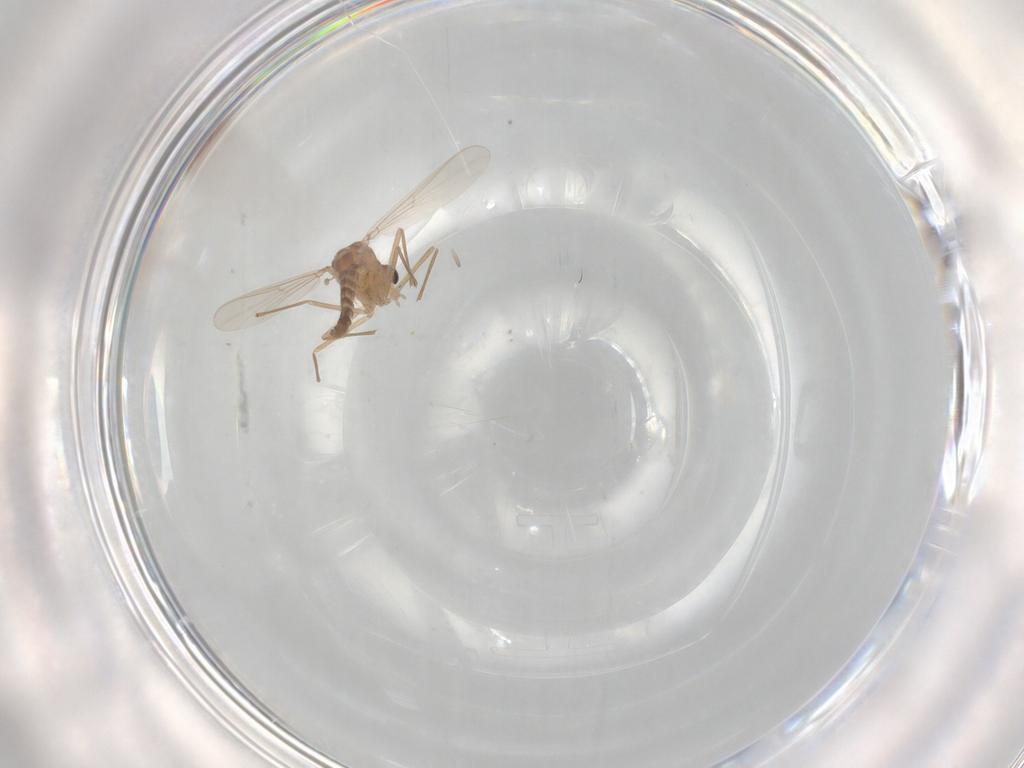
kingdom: Animalia
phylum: Arthropoda
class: Insecta
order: Diptera
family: Chironomidae
